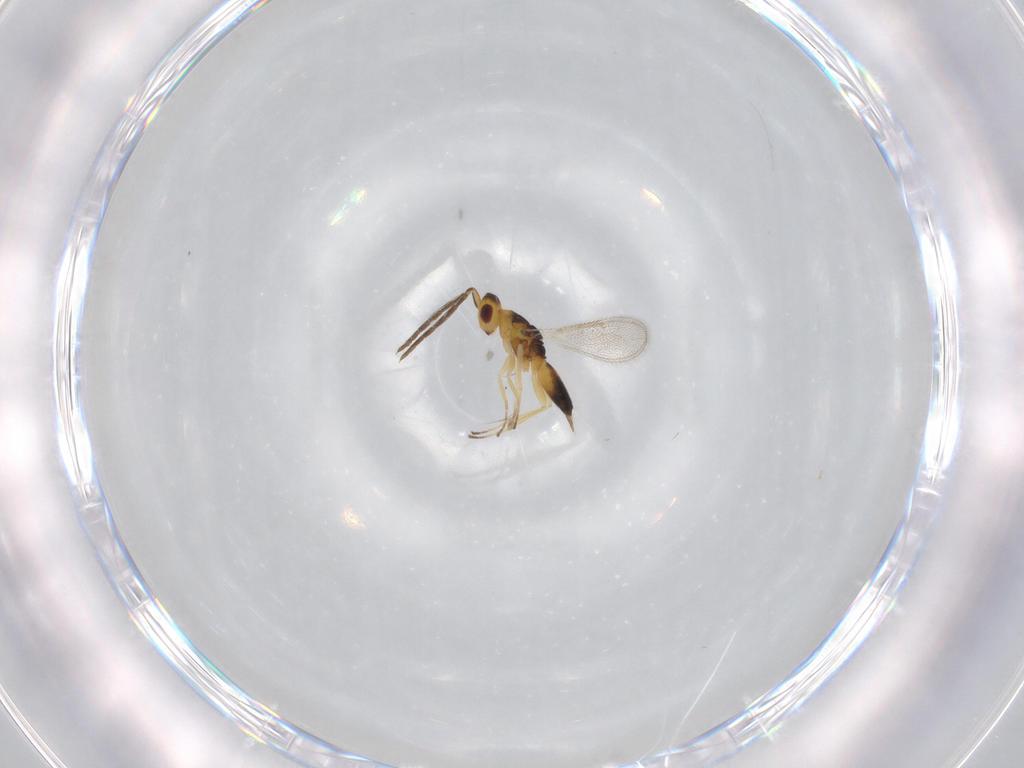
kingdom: Animalia
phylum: Arthropoda
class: Insecta
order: Hymenoptera
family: Eulophidae
